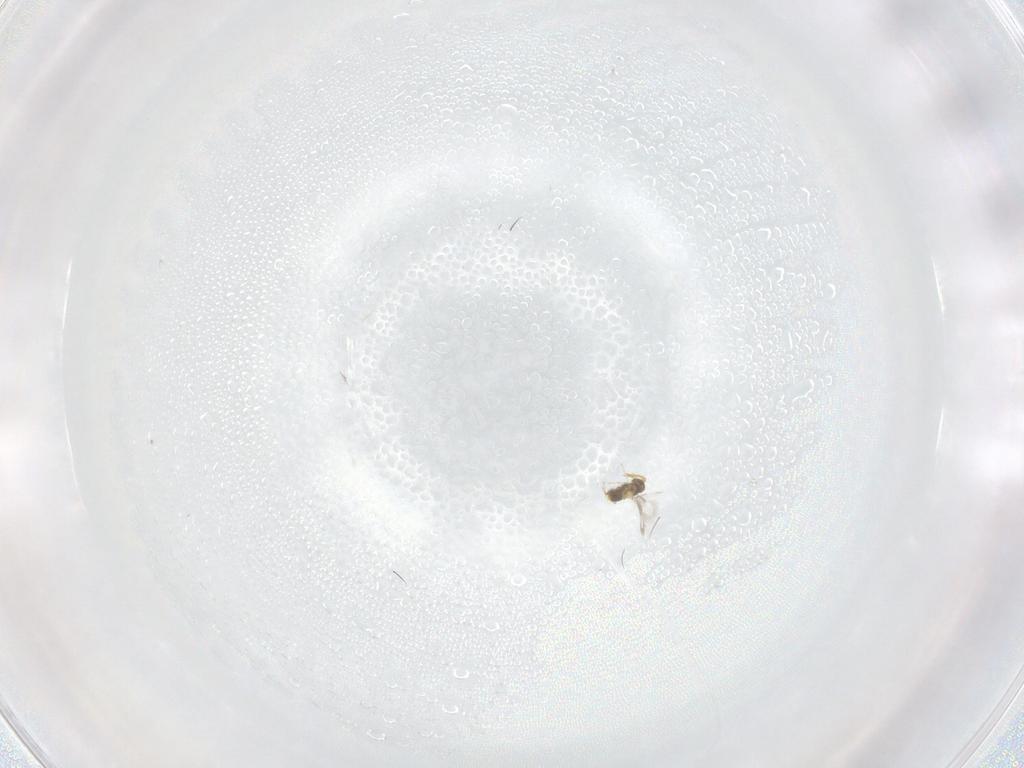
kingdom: Animalia
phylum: Arthropoda
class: Insecta
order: Hymenoptera
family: Aphelinidae
